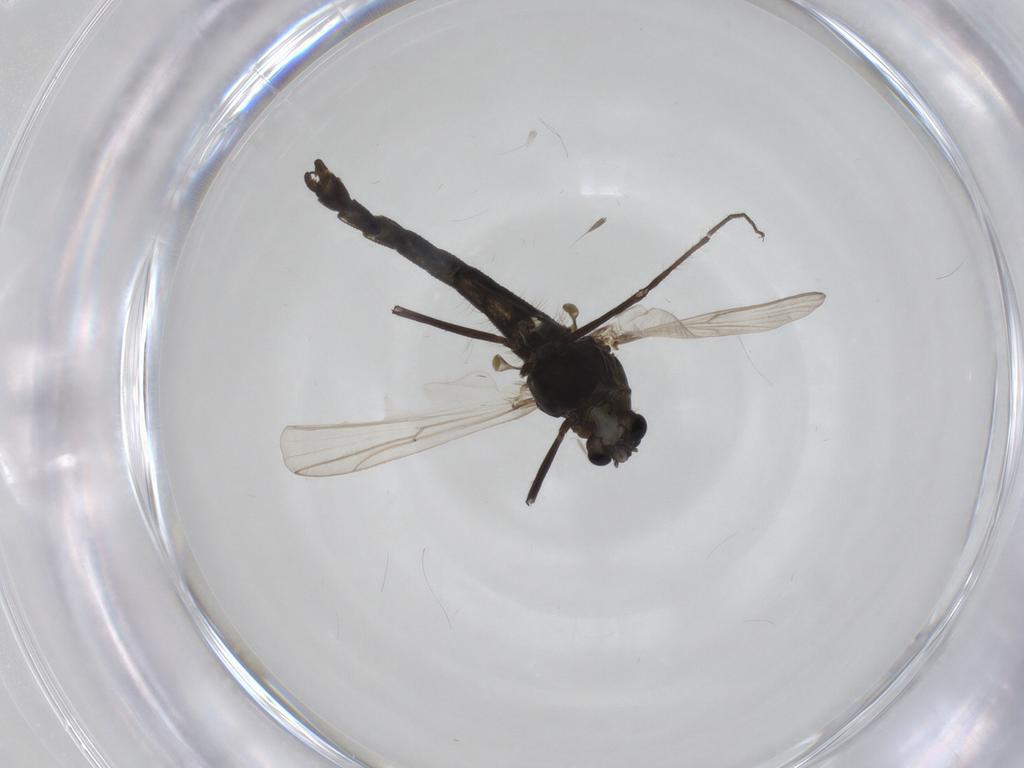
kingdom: Animalia
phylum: Arthropoda
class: Insecta
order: Diptera
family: Chironomidae
